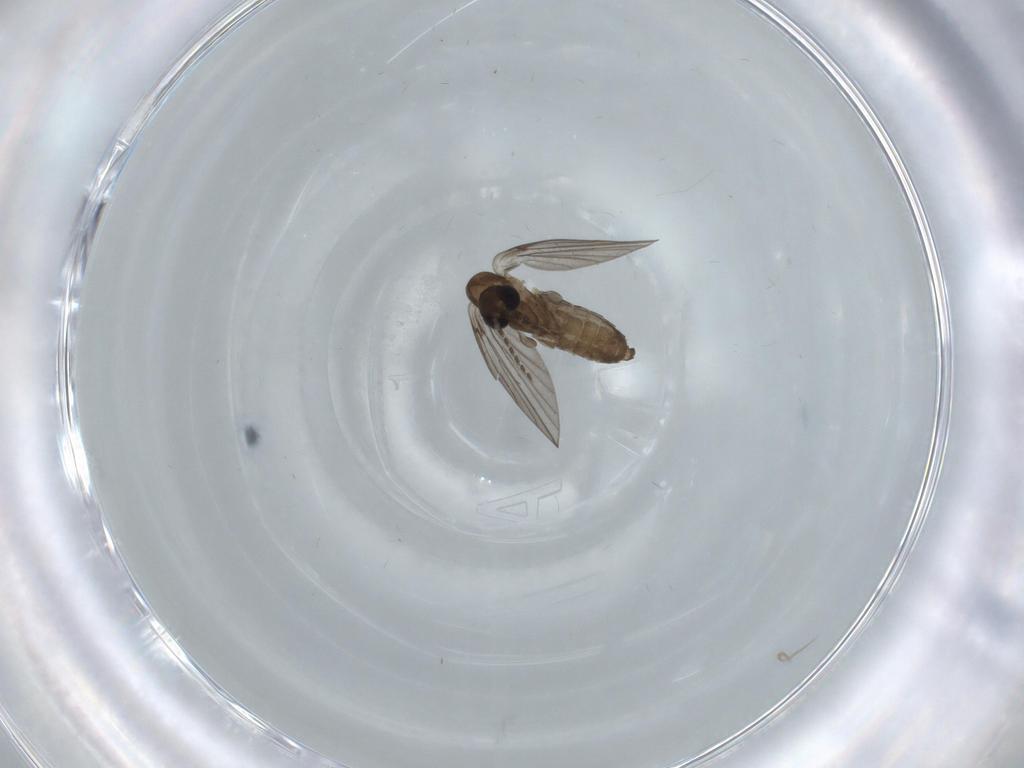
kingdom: Animalia
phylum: Arthropoda
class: Insecta
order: Diptera
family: Psychodidae
